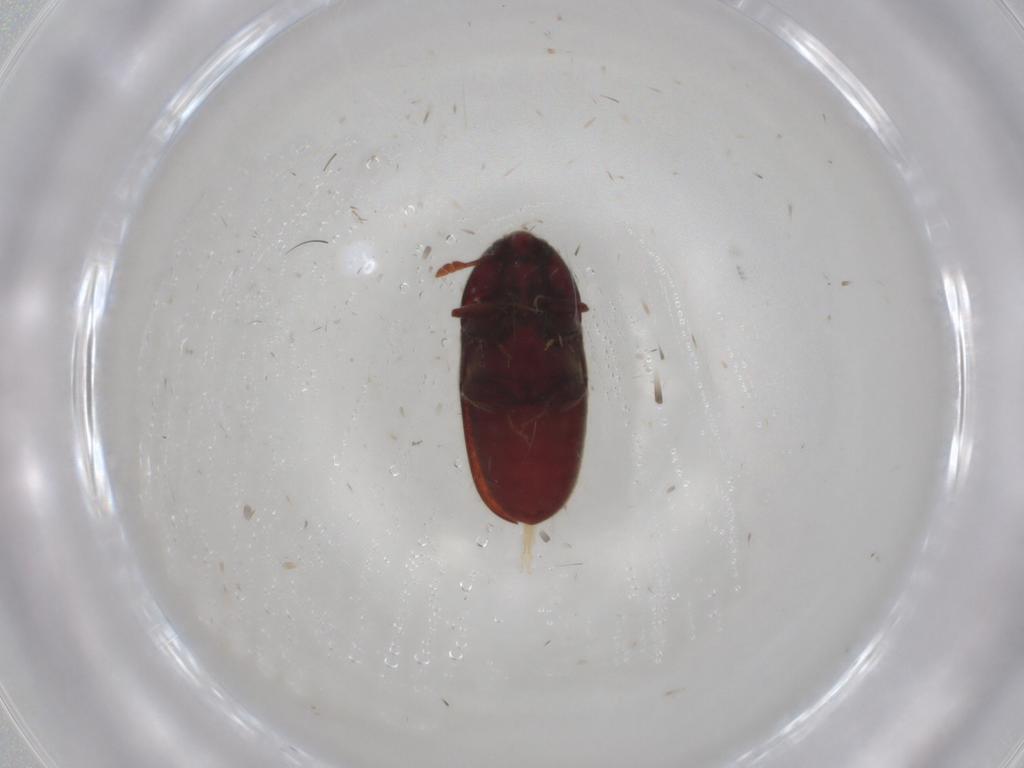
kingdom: Animalia
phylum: Arthropoda
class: Insecta
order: Coleoptera
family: Throscidae
